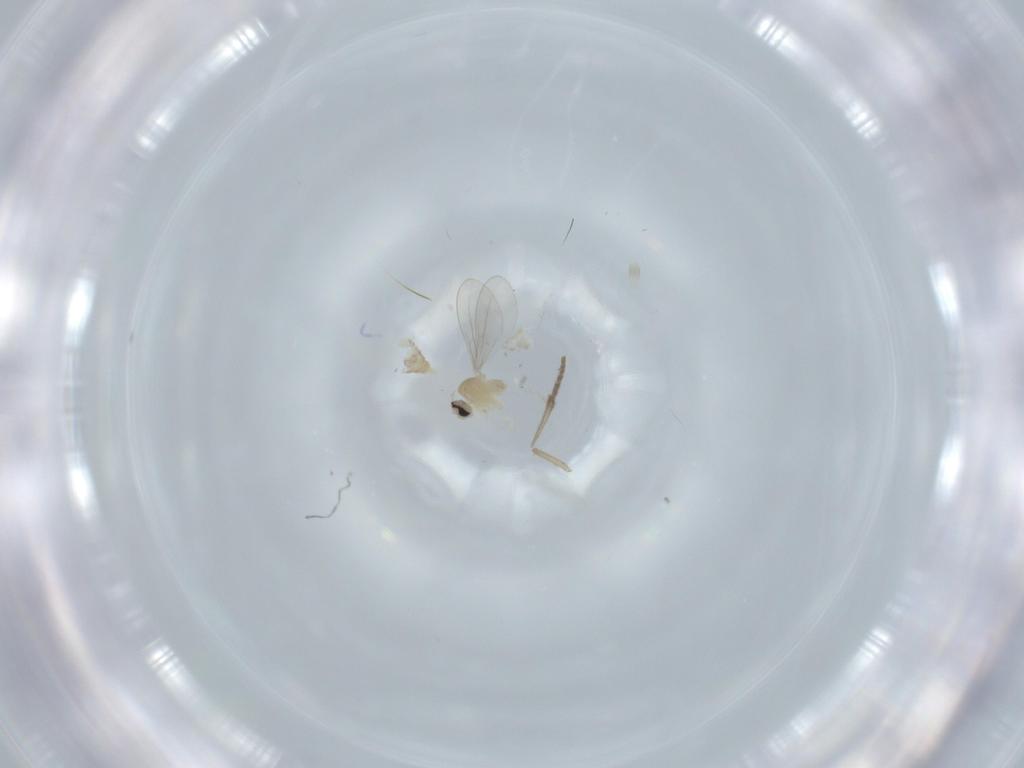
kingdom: Animalia
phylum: Arthropoda
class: Insecta
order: Diptera
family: Cecidomyiidae
